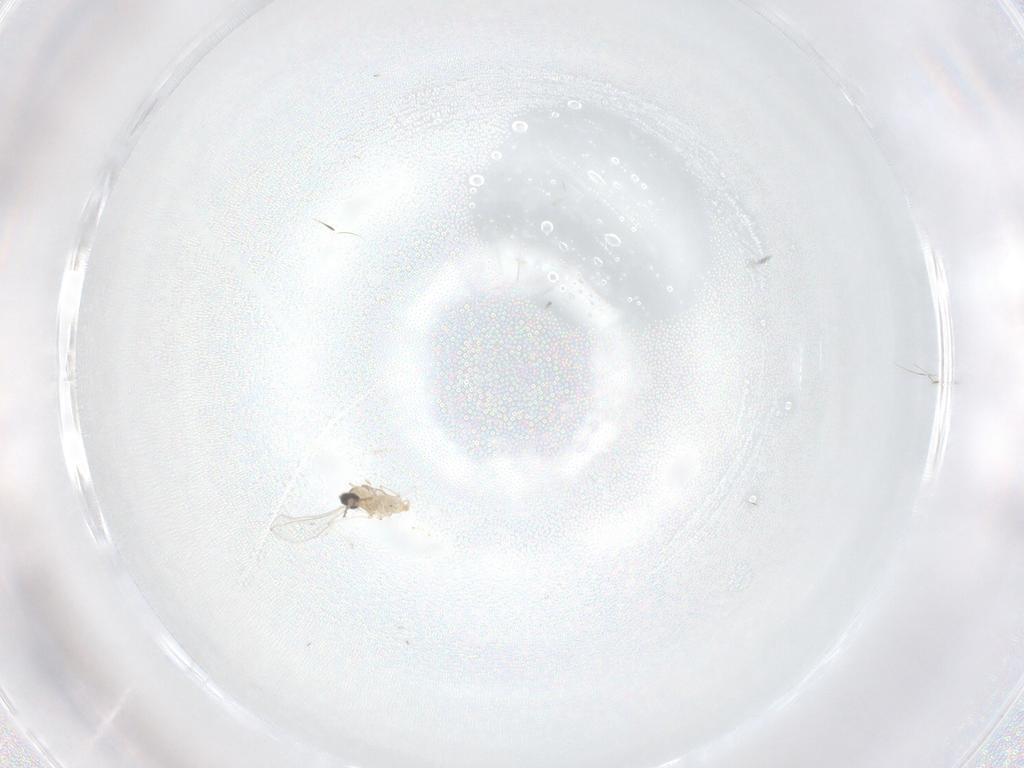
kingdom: Animalia
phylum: Arthropoda
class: Insecta
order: Diptera
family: Cecidomyiidae
